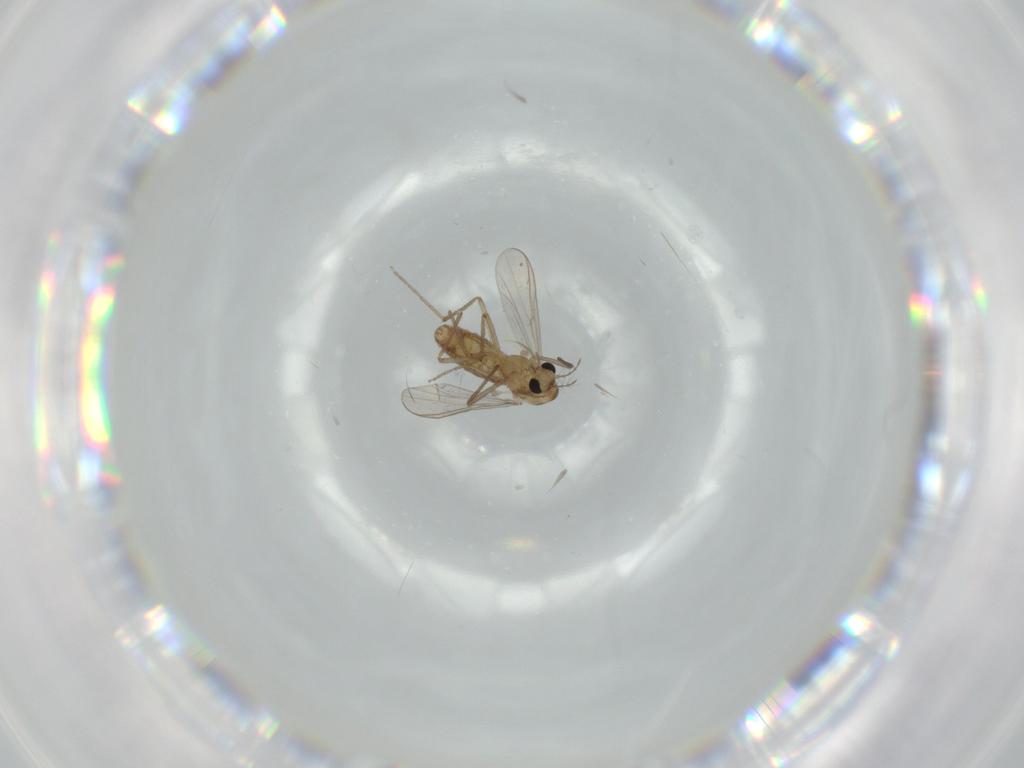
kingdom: Animalia
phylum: Arthropoda
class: Insecta
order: Diptera
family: Chironomidae
